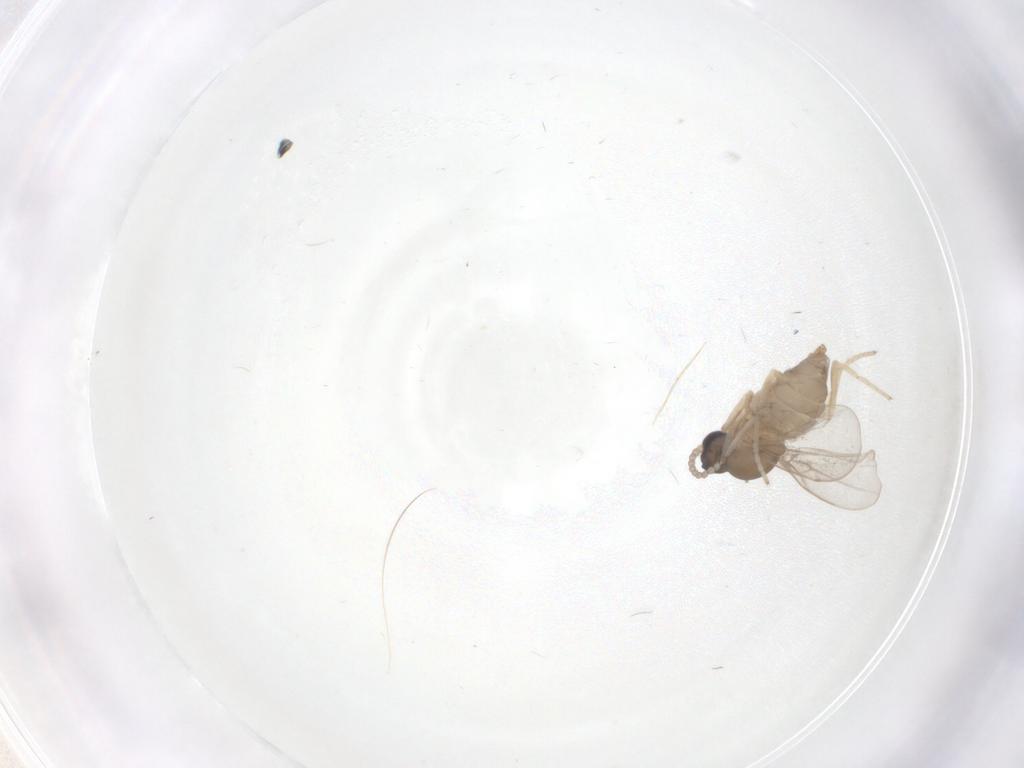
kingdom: Animalia
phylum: Arthropoda
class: Insecta
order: Diptera
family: Cecidomyiidae
